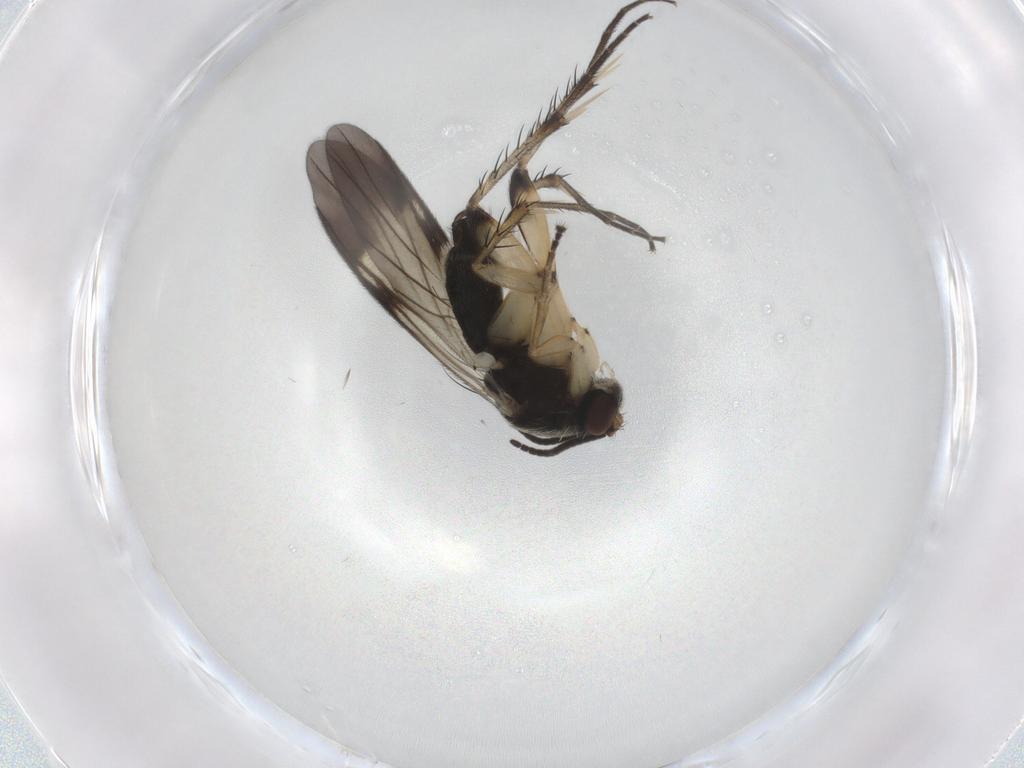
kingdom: Animalia
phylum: Arthropoda
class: Insecta
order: Diptera
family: Mycetophilidae
